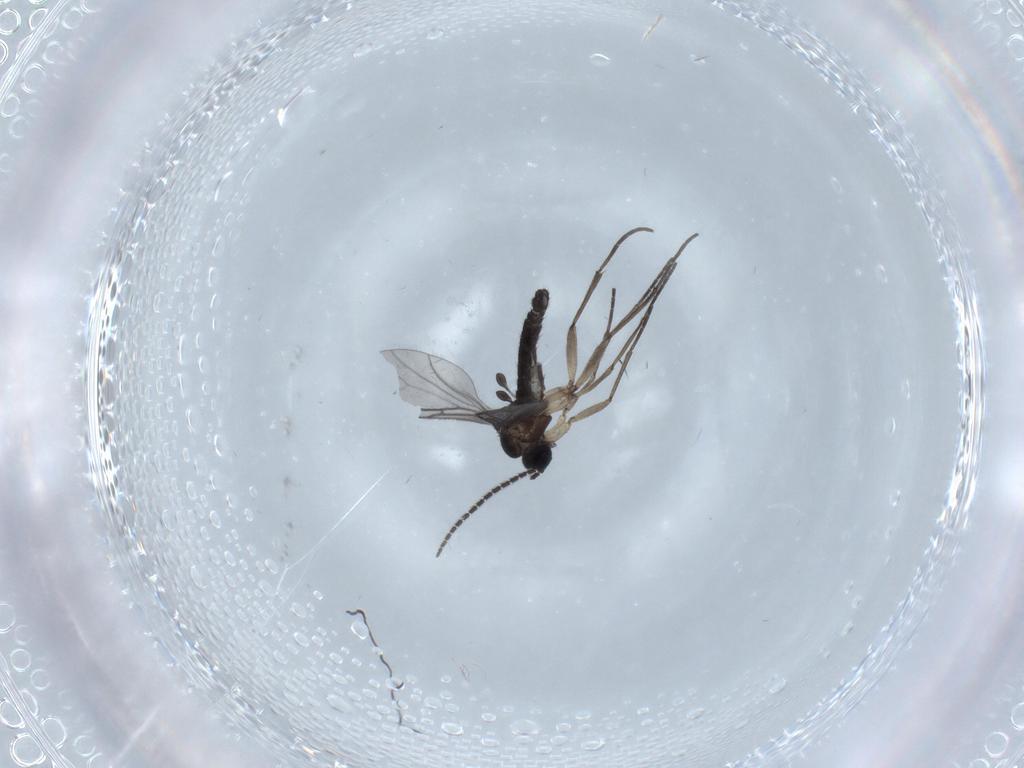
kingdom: Animalia
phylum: Arthropoda
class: Insecta
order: Diptera
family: Sciaridae
